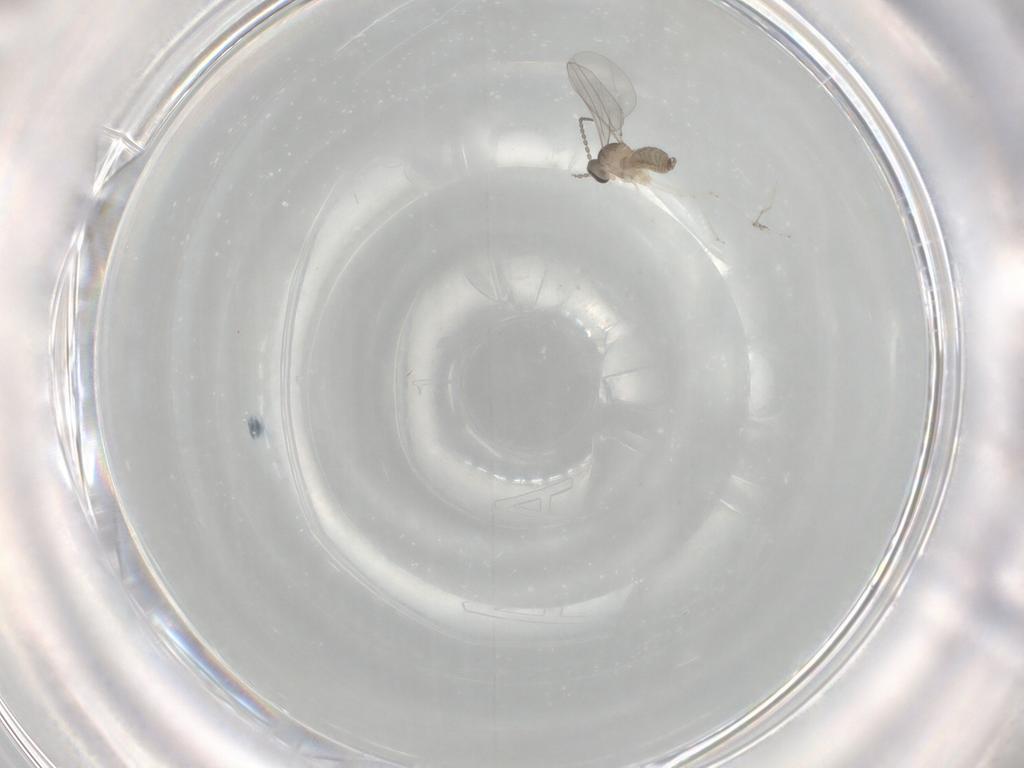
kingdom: Animalia
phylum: Arthropoda
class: Insecta
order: Diptera
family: Cecidomyiidae
